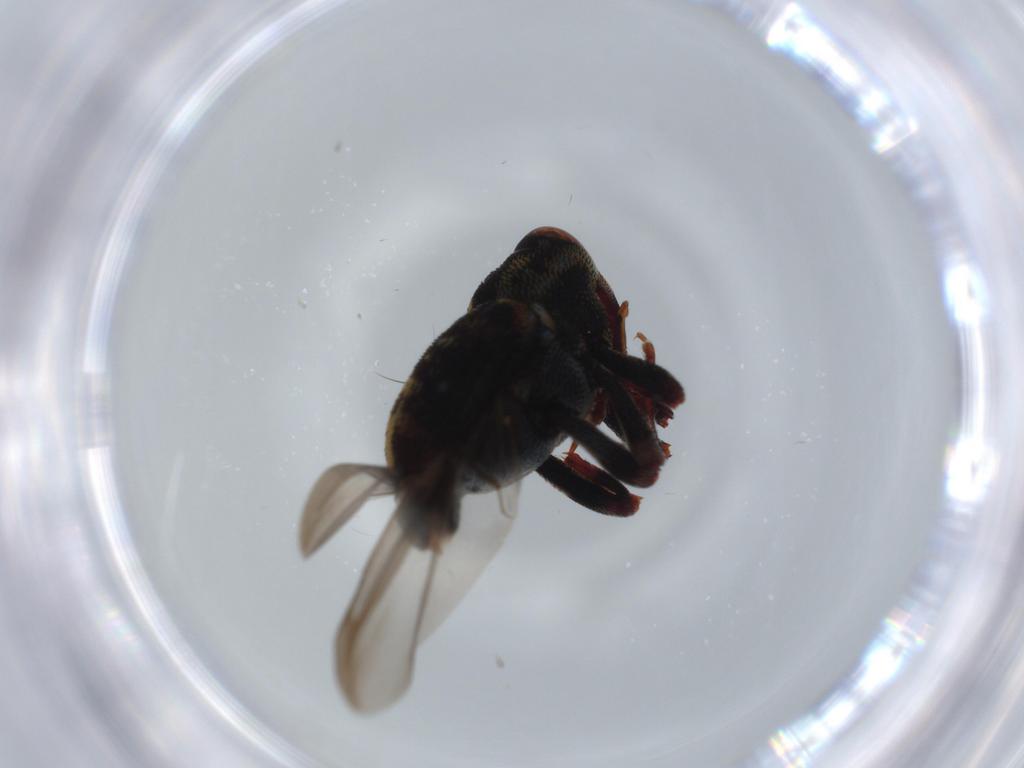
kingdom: Animalia
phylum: Arthropoda
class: Insecta
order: Coleoptera
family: Curculionidae
